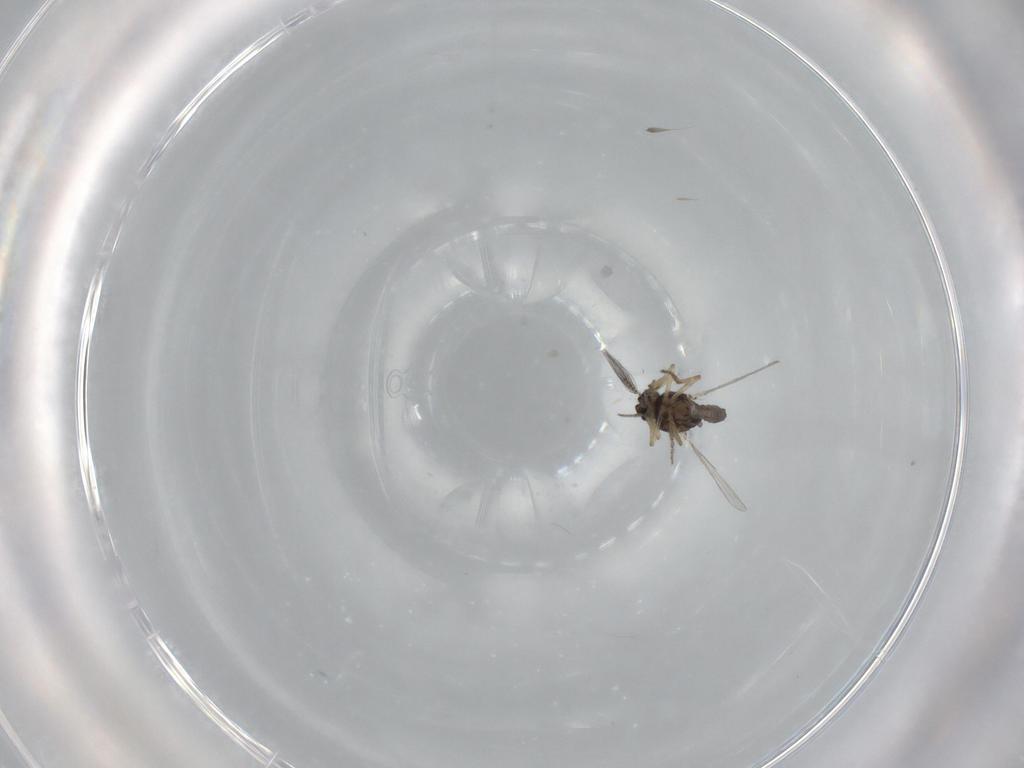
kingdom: Animalia
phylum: Arthropoda
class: Insecta
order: Diptera
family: Ceratopogonidae
